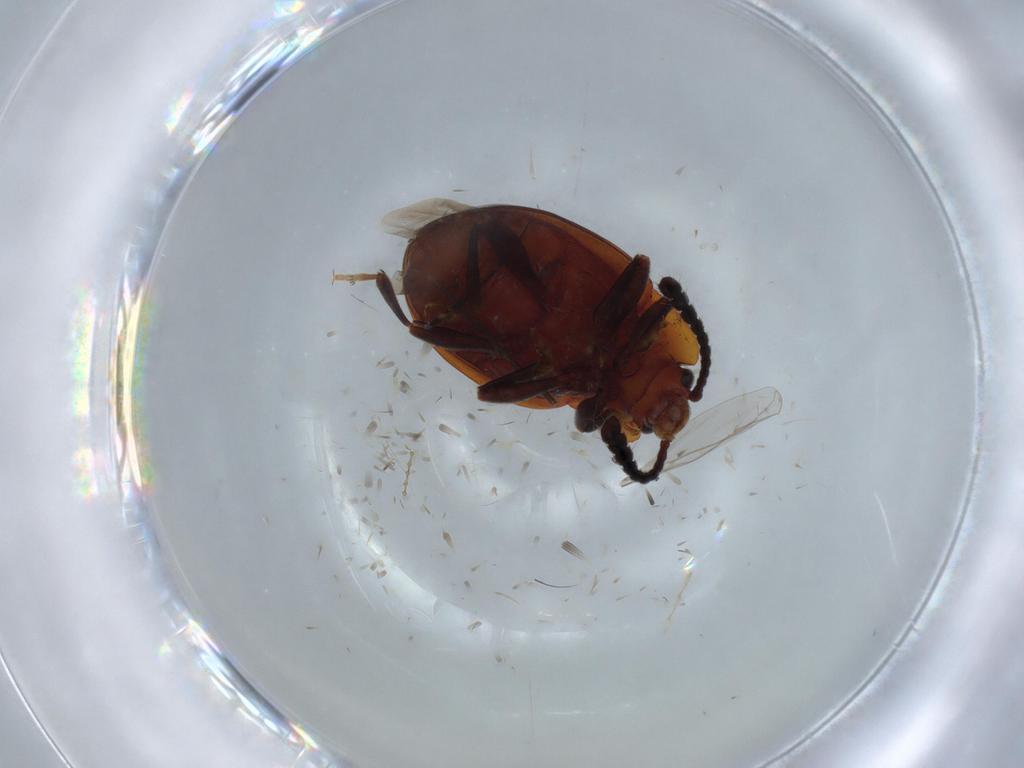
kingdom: Animalia
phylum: Arthropoda
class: Insecta
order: Coleoptera
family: Endomychidae
